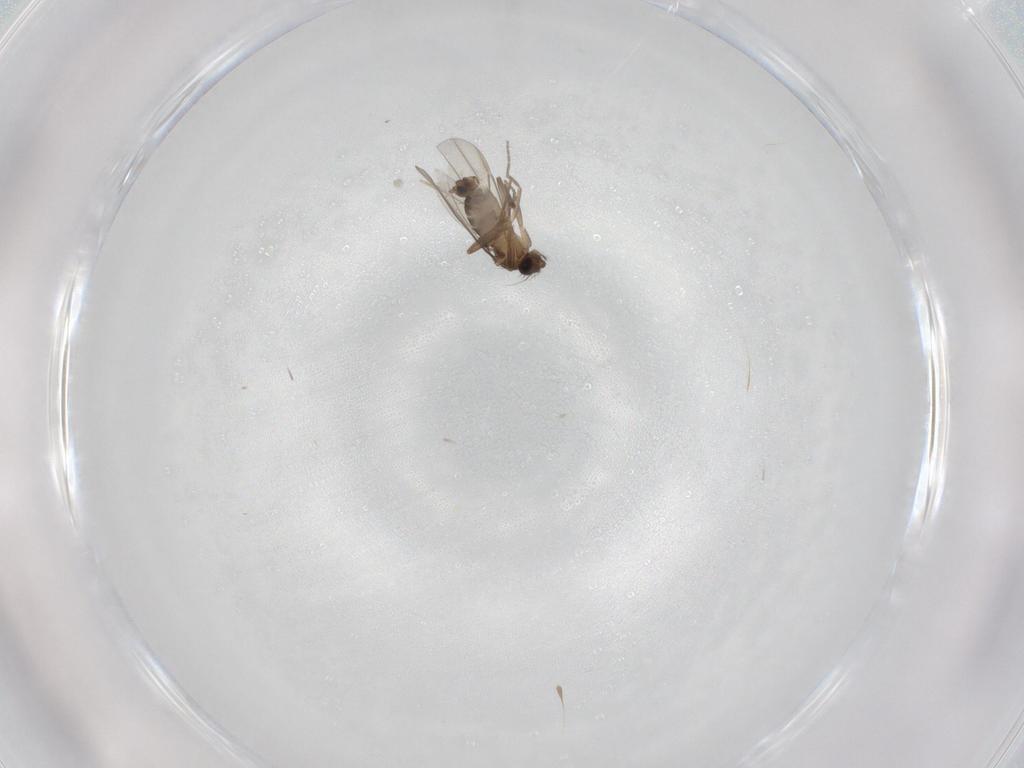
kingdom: Animalia
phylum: Arthropoda
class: Insecta
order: Diptera
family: Phoridae
